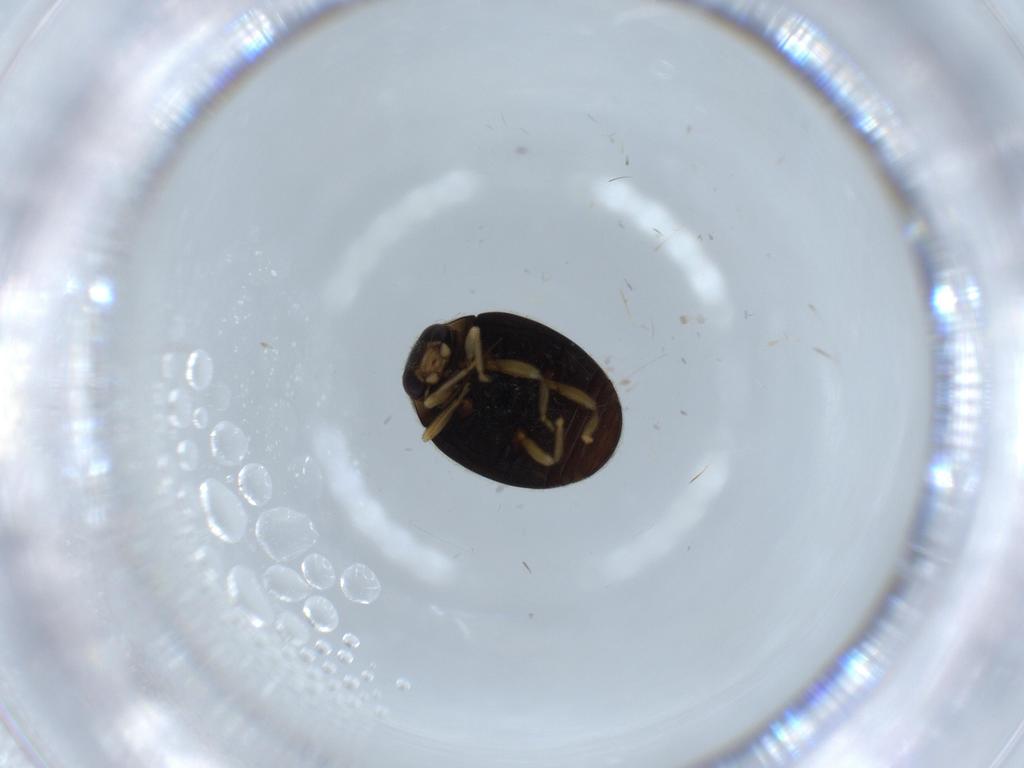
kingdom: Animalia
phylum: Arthropoda
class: Insecta
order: Coleoptera
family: Coccinellidae
